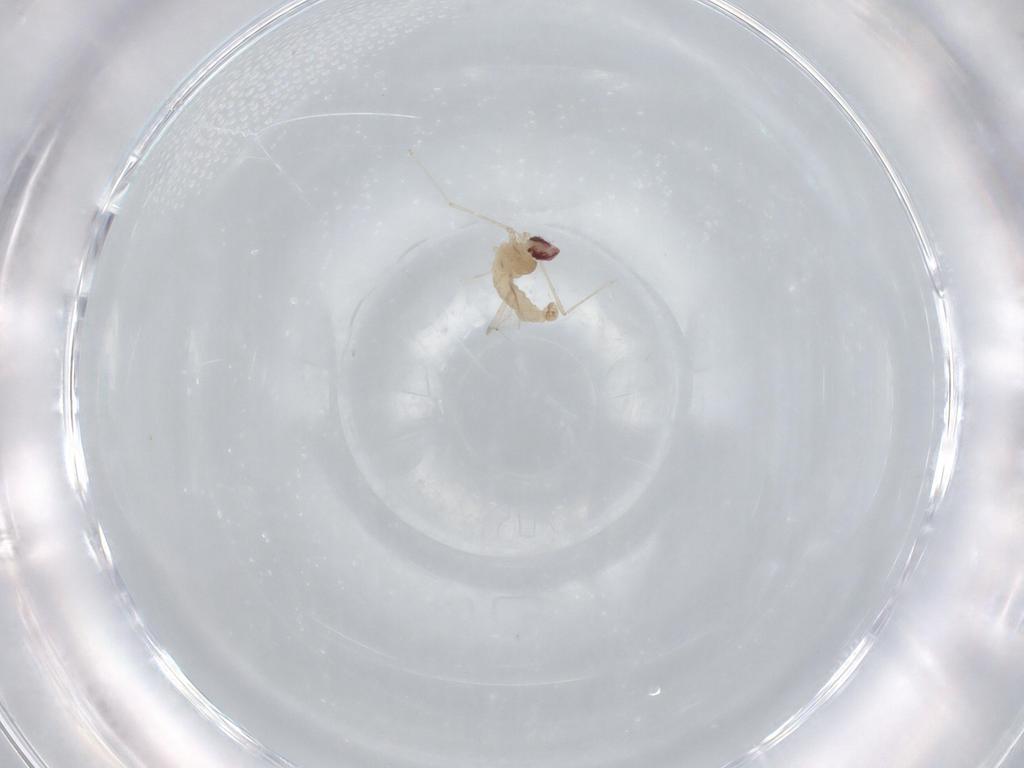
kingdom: Animalia
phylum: Arthropoda
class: Insecta
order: Diptera
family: Cecidomyiidae
